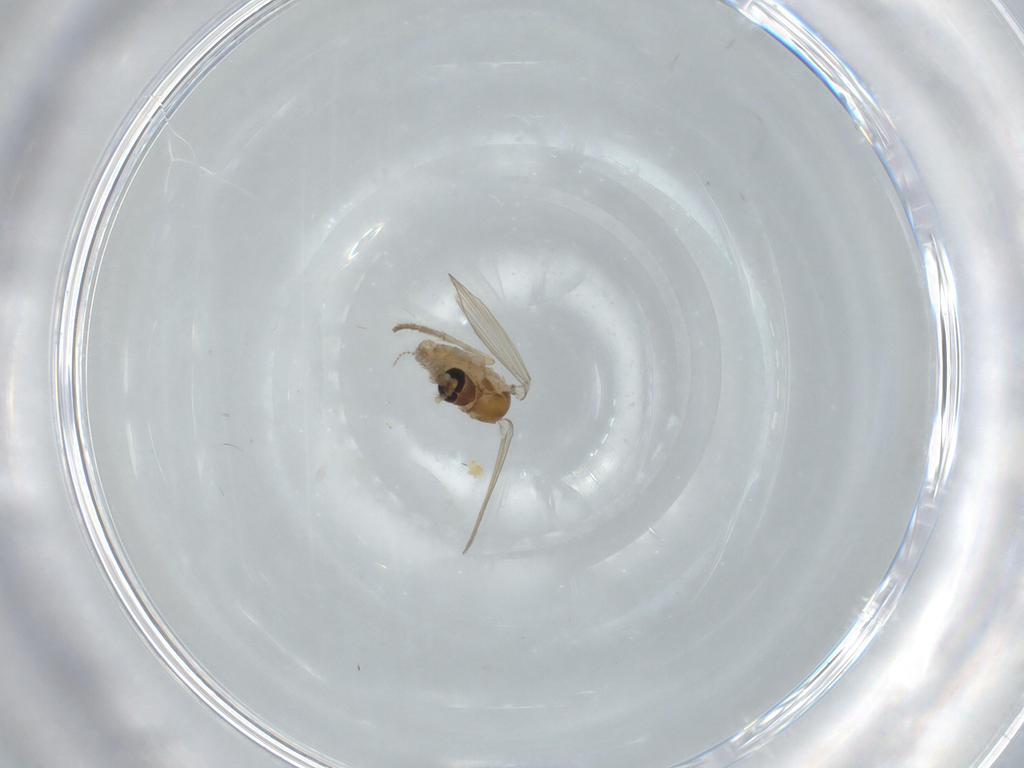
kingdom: Animalia
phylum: Arthropoda
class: Insecta
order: Diptera
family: Psychodidae
